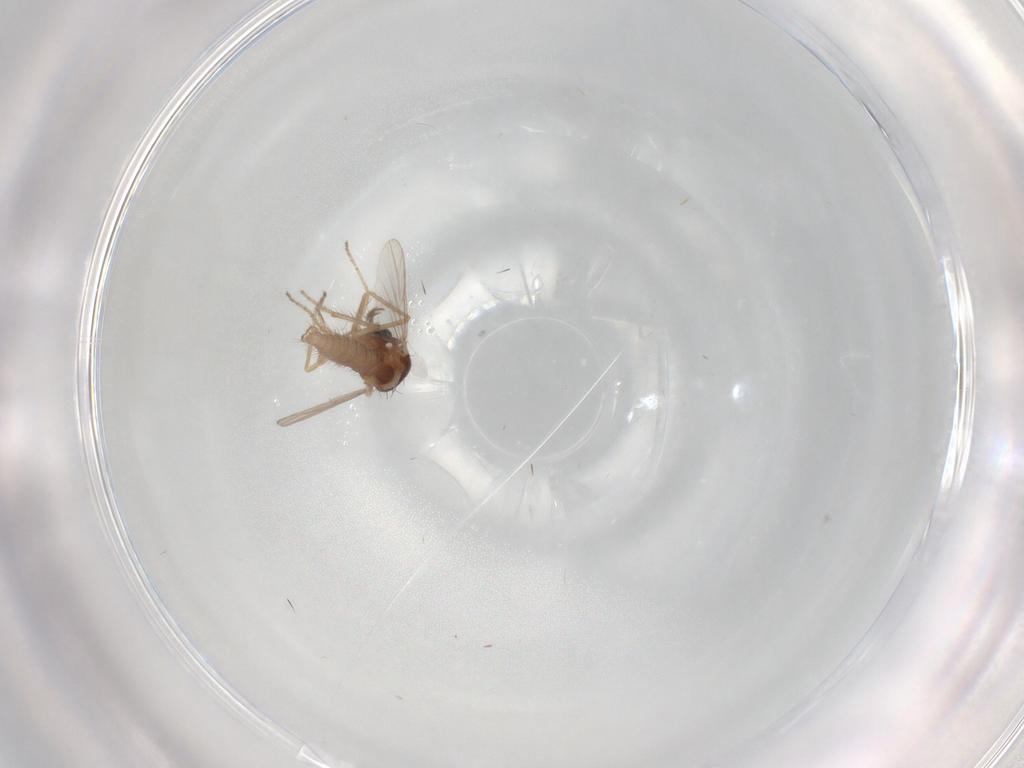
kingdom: Animalia
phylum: Arthropoda
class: Insecta
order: Diptera
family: Ceratopogonidae
